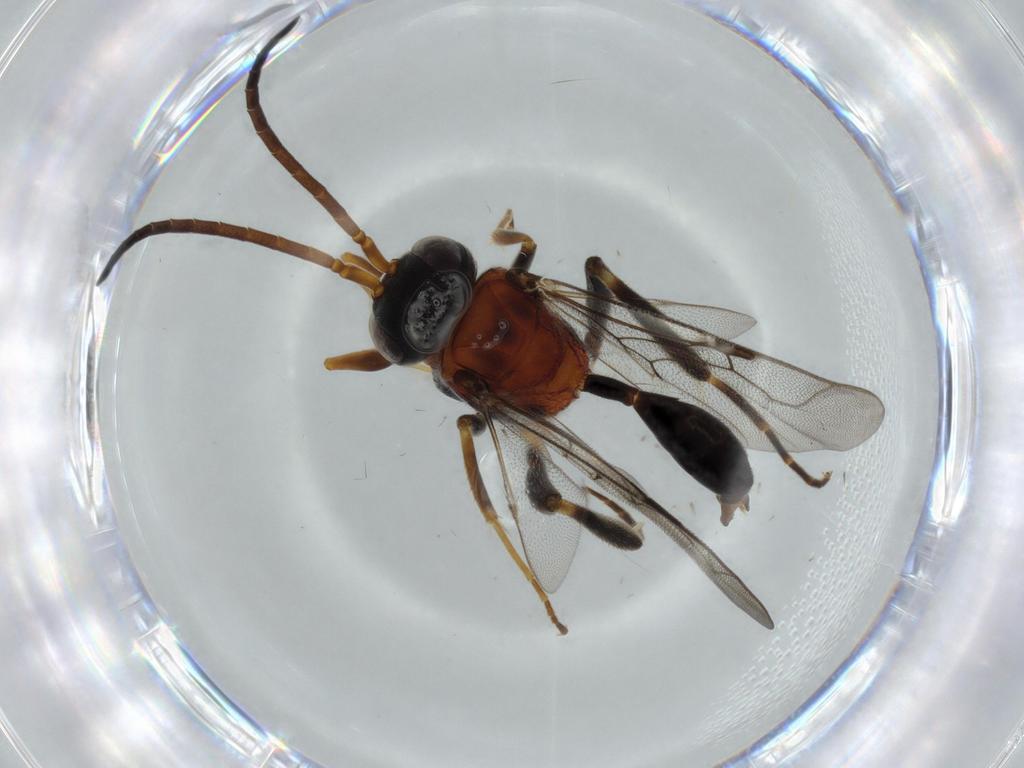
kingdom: Animalia
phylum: Arthropoda
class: Insecta
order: Hymenoptera
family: Evaniidae
